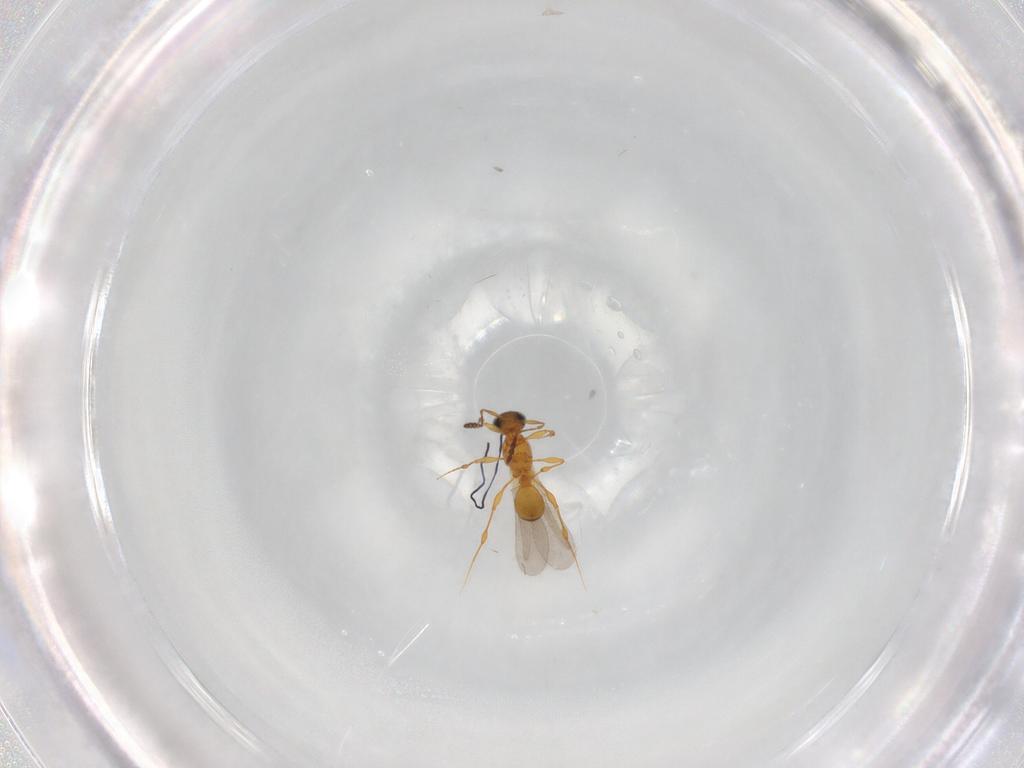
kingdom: Animalia
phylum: Arthropoda
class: Insecta
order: Hymenoptera
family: Platygastridae
